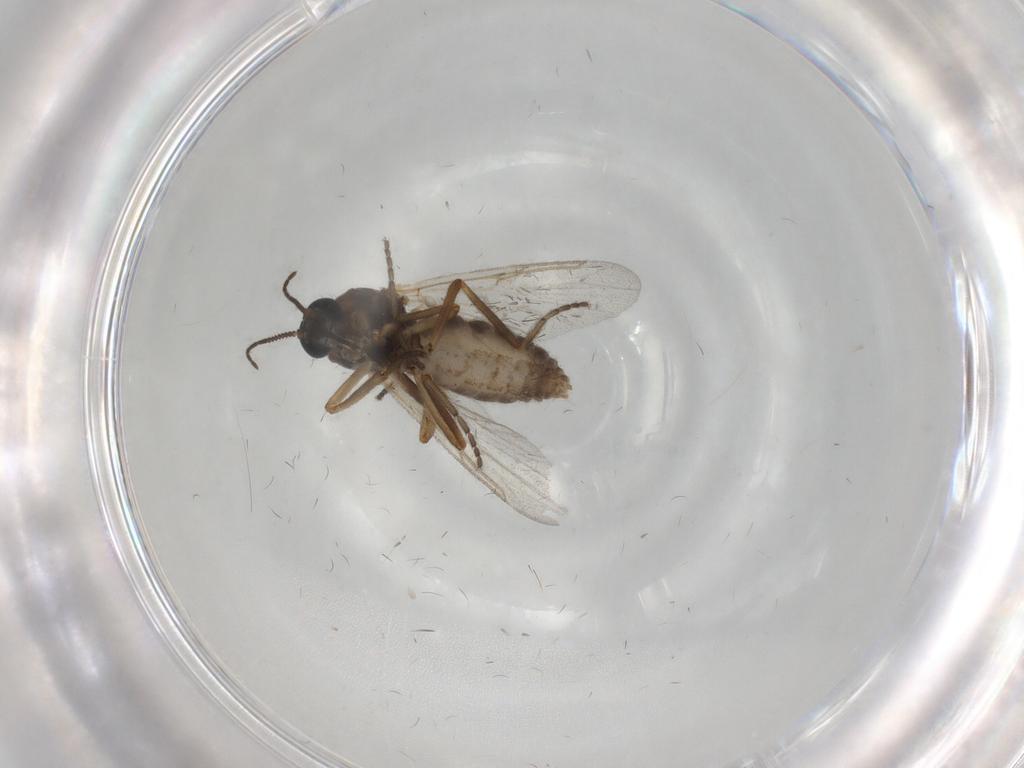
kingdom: Animalia
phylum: Arthropoda
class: Insecta
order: Diptera
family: Ceratopogonidae
